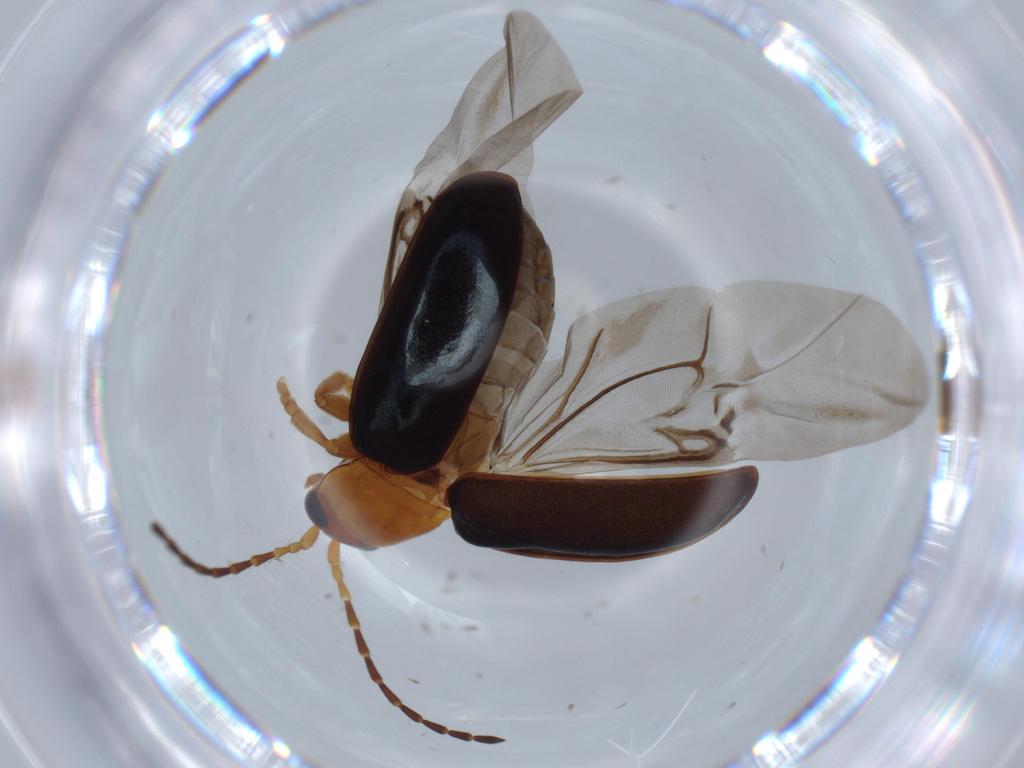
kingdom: Animalia
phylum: Arthropoda
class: Insecta
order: Coleoptera
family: Chrysomelidae
